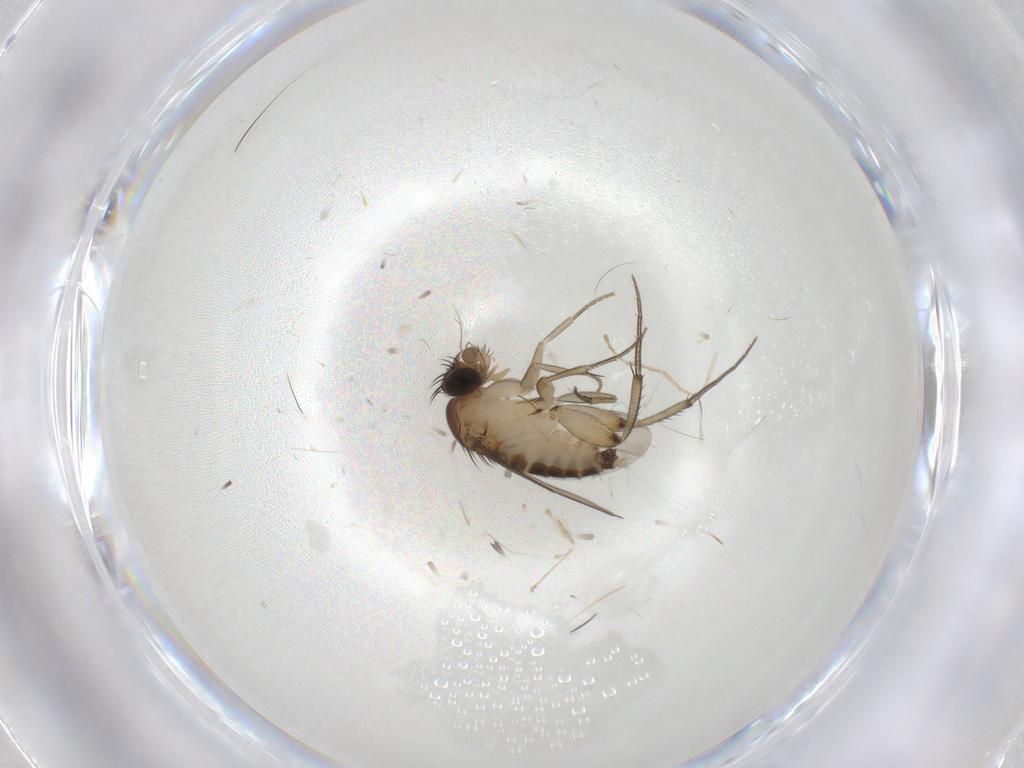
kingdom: Animalia
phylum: Arthropoda
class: Insecta
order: Diptera
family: Phoridae
